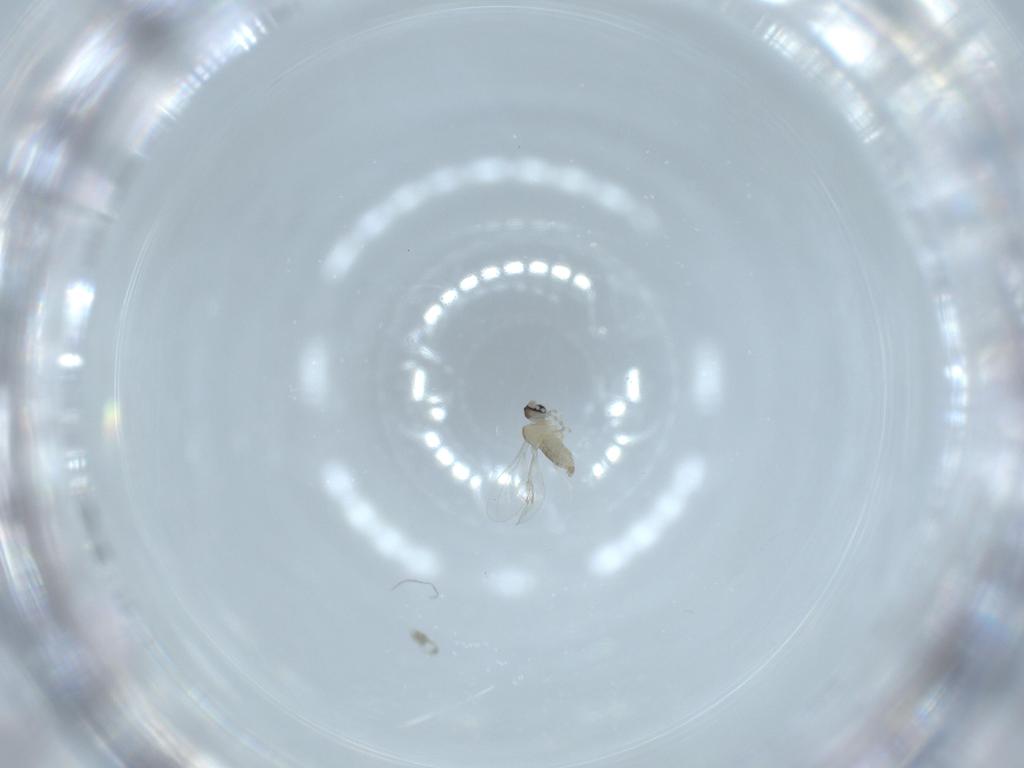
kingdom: Animalia
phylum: Arthropoda
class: Insecta
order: Diptera
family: Cecidomyiidae
